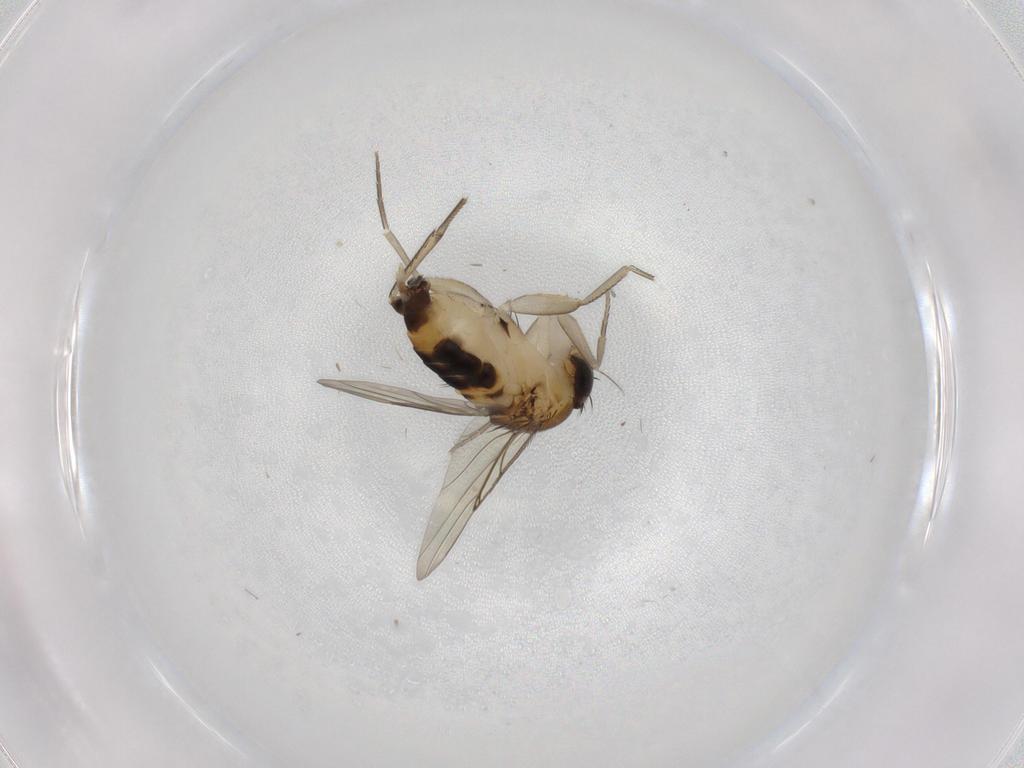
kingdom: Animalia
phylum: Arthropoda
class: Insecta
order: Diptera
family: Phoridae
